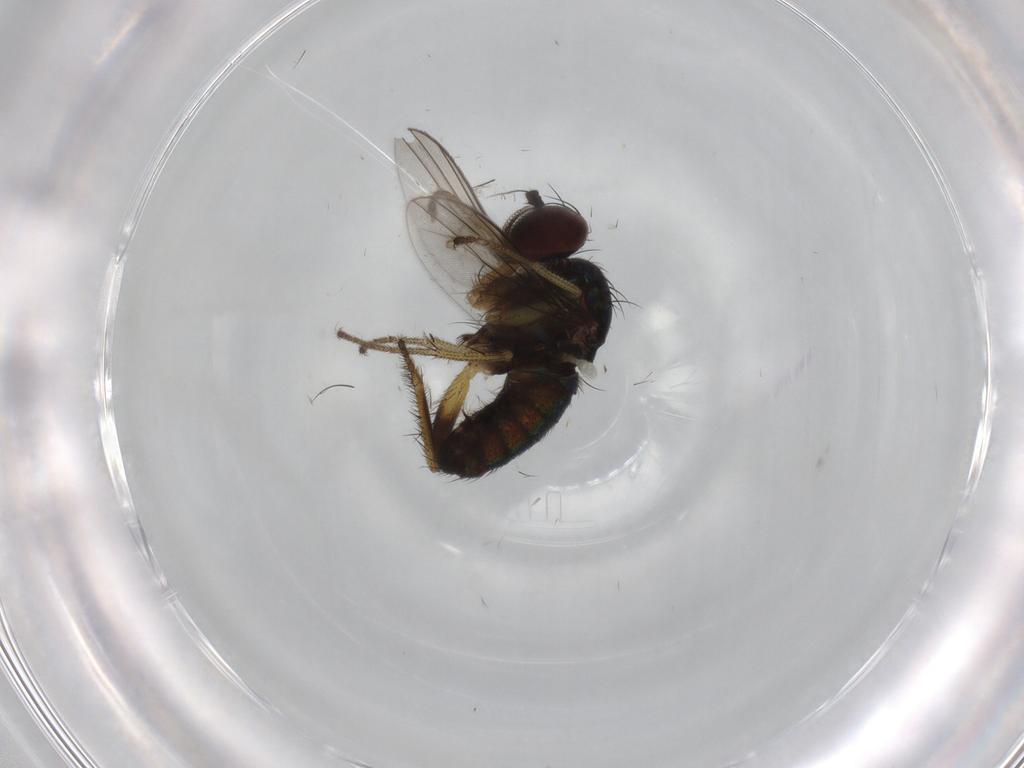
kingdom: Animalia
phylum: Arthropoda
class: Insecta
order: Diptera
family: Dolichopodidae
